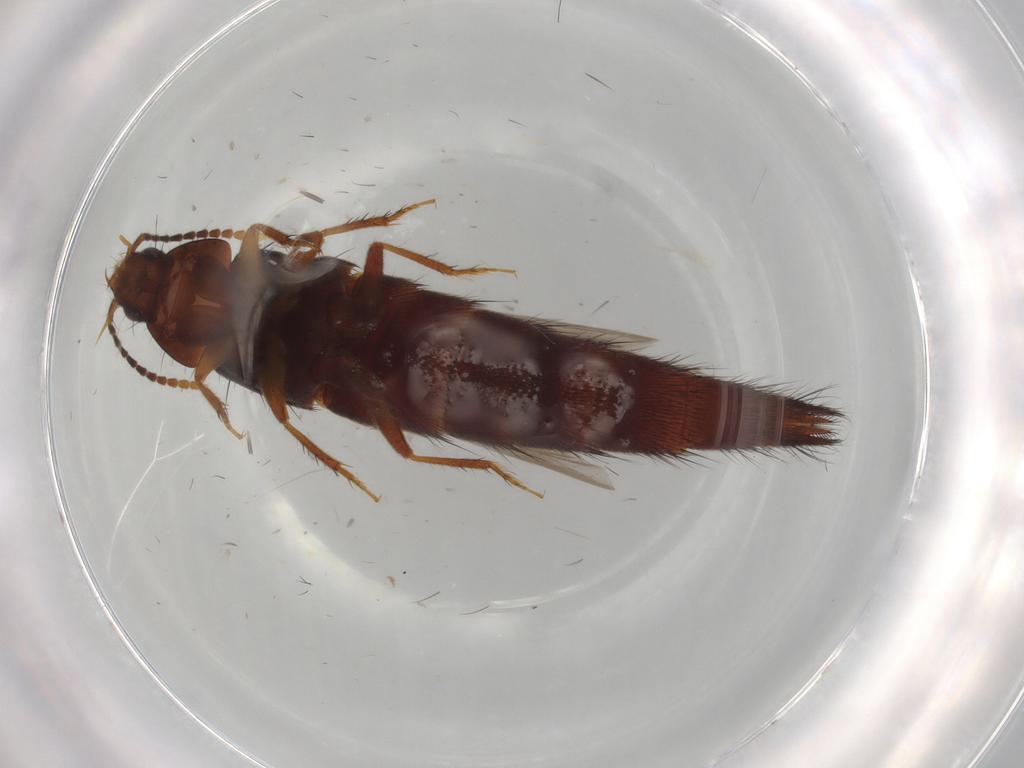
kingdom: Animalia
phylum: Arthropoda
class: Insecta
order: Coleoptera
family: Staphylinidae
